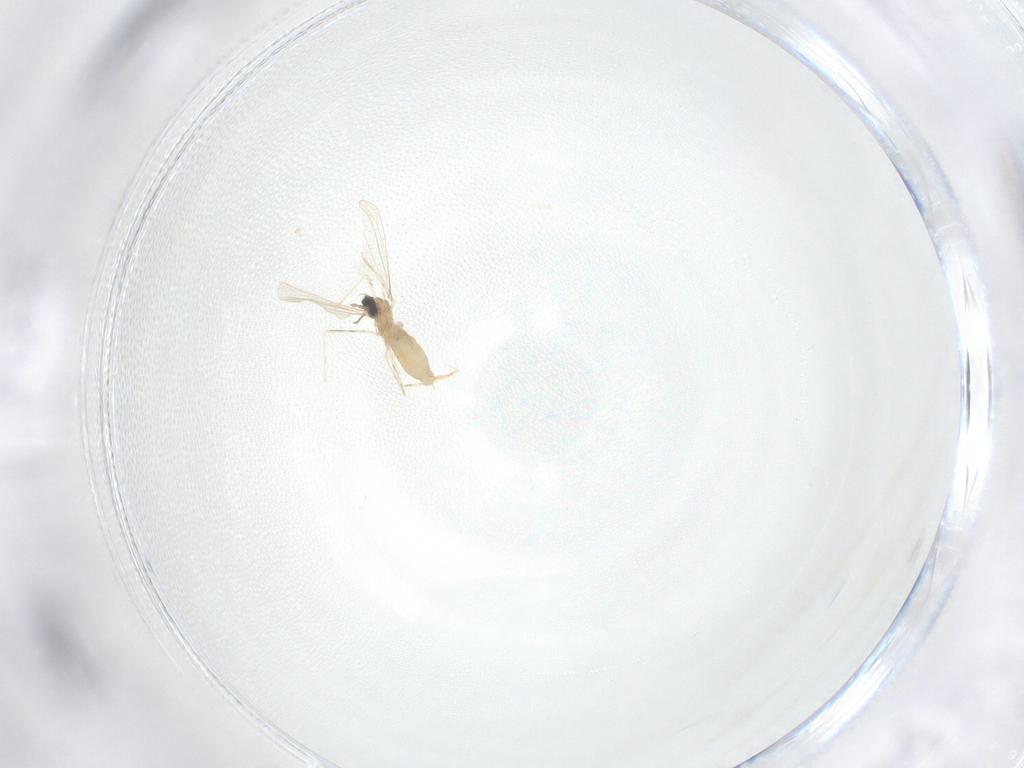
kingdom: Animalia
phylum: Arthropoda
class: Insecta
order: Diptera
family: Cecidomyiidae
